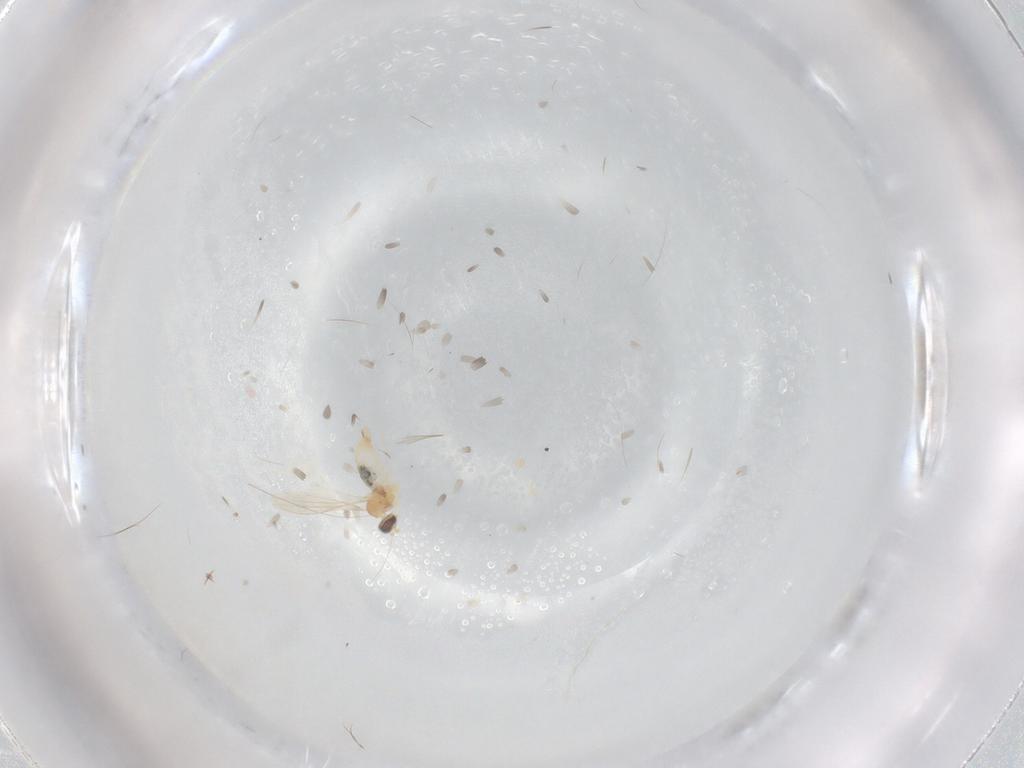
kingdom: Animalia
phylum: Arthropoda
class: Insecta
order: Diptera
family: Cecidomyiidae
